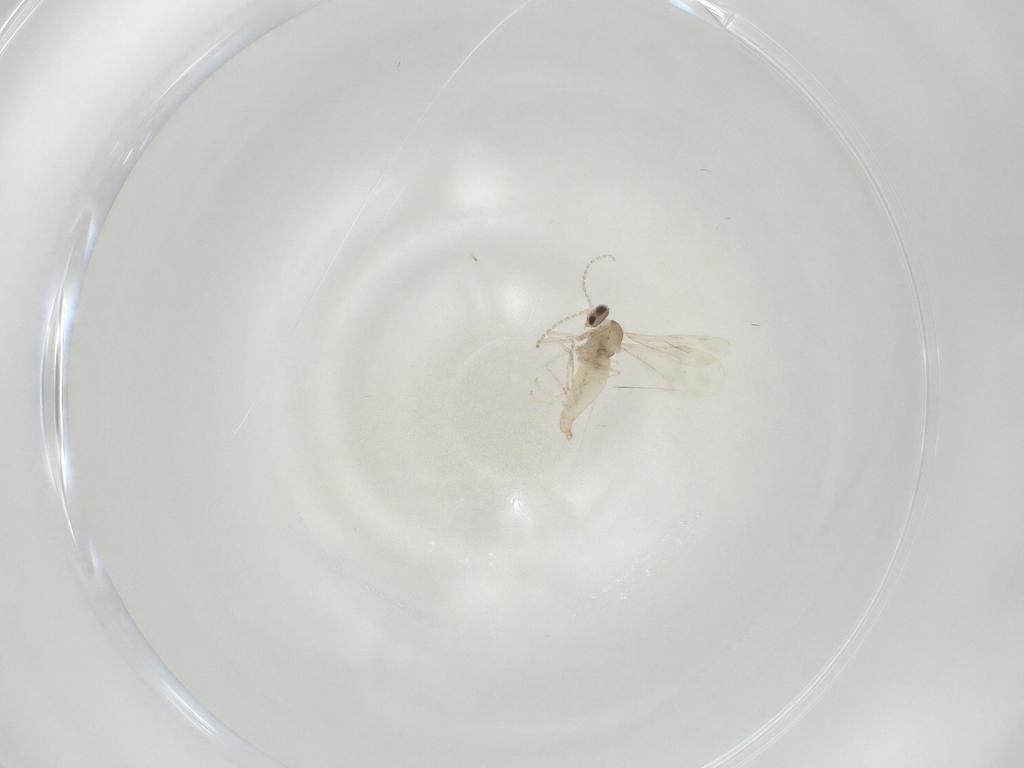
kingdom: Animalia
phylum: Arthropoda
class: Insecta
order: Diptera
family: Cecidomyiidae
